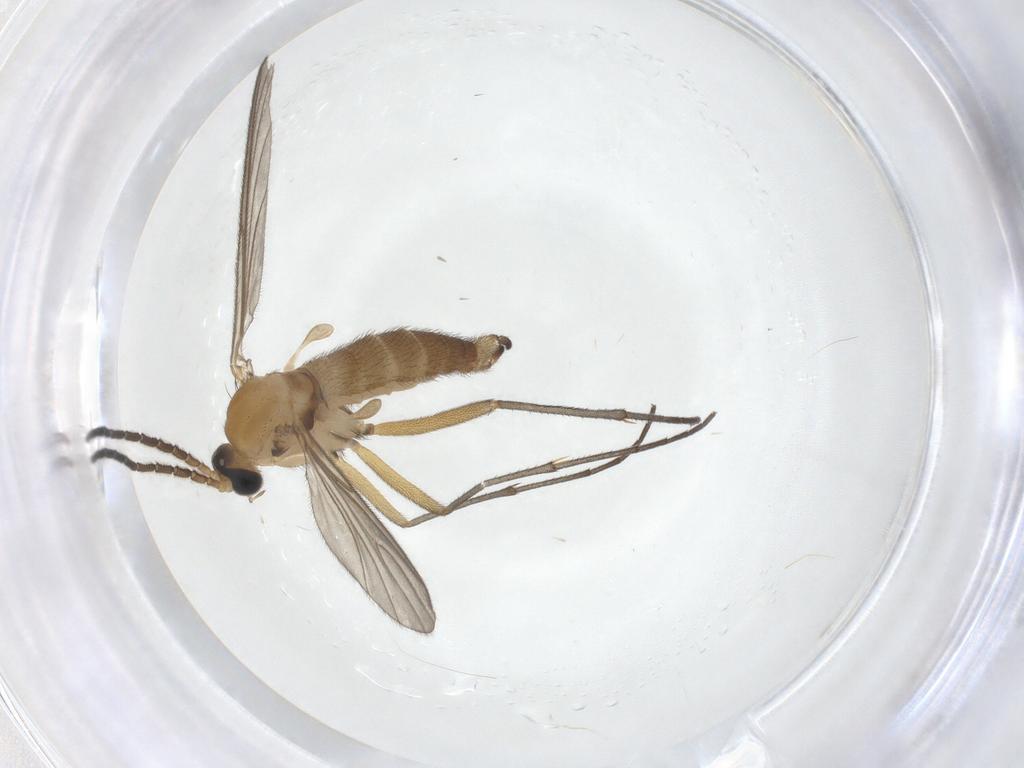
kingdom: Animalia
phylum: Arthropoda
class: Insecta
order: Diptera
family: Sciaridae
